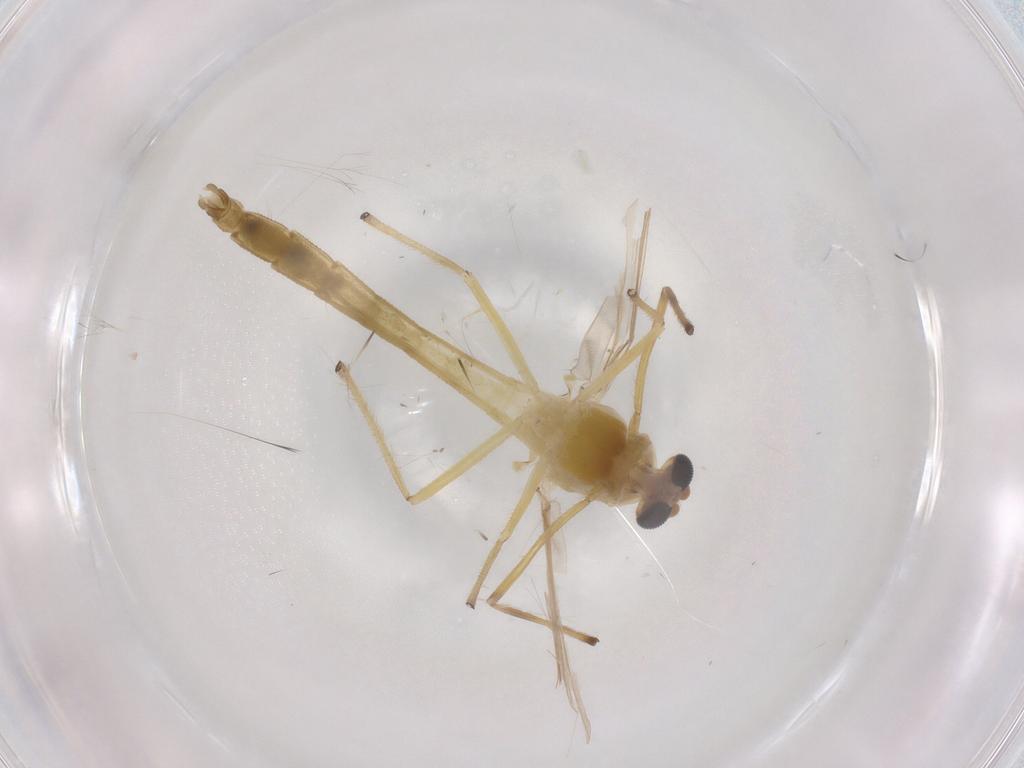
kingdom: Animalia
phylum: Arthropoda
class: Insecta
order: Diptera
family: Chironomidae
